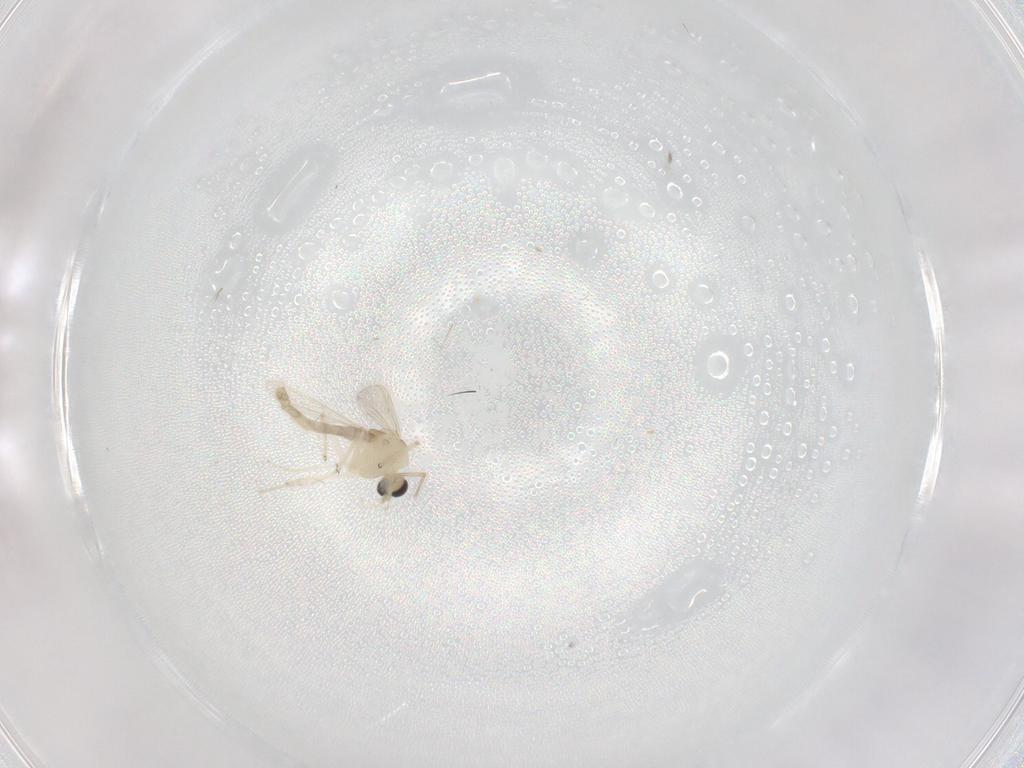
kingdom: Animalia
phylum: Arthropoda
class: Insecta
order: Diptera
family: Chironomidae
